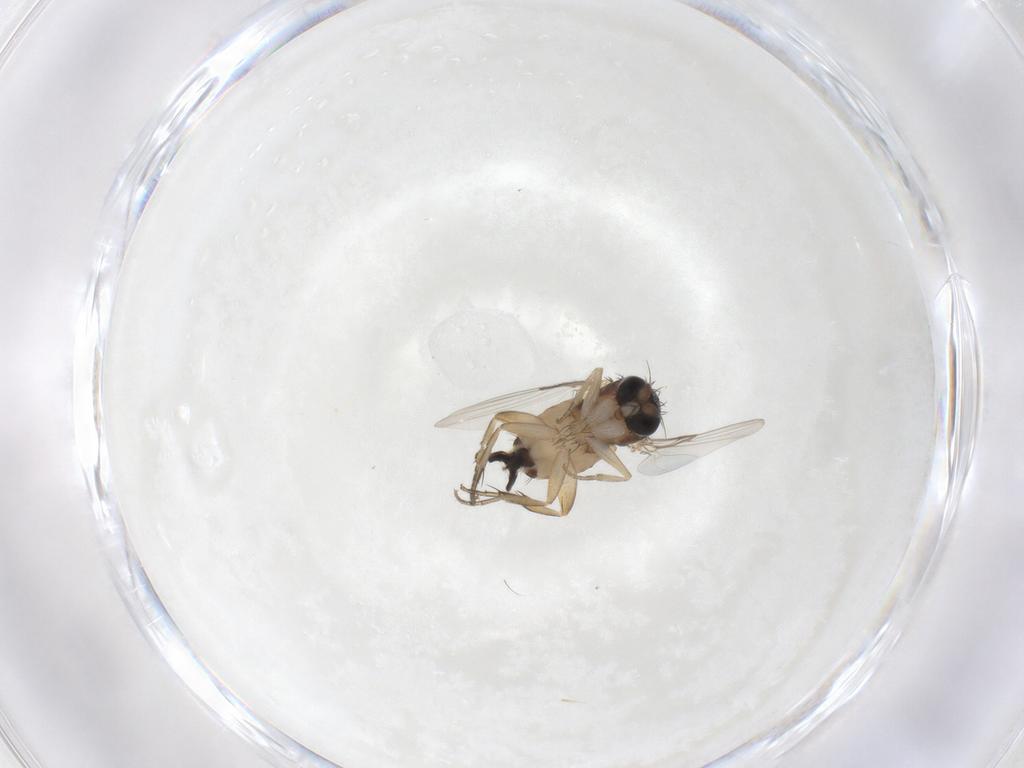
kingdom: Animalia
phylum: Arthropoda
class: Insecta
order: Diptera
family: Phoridae
